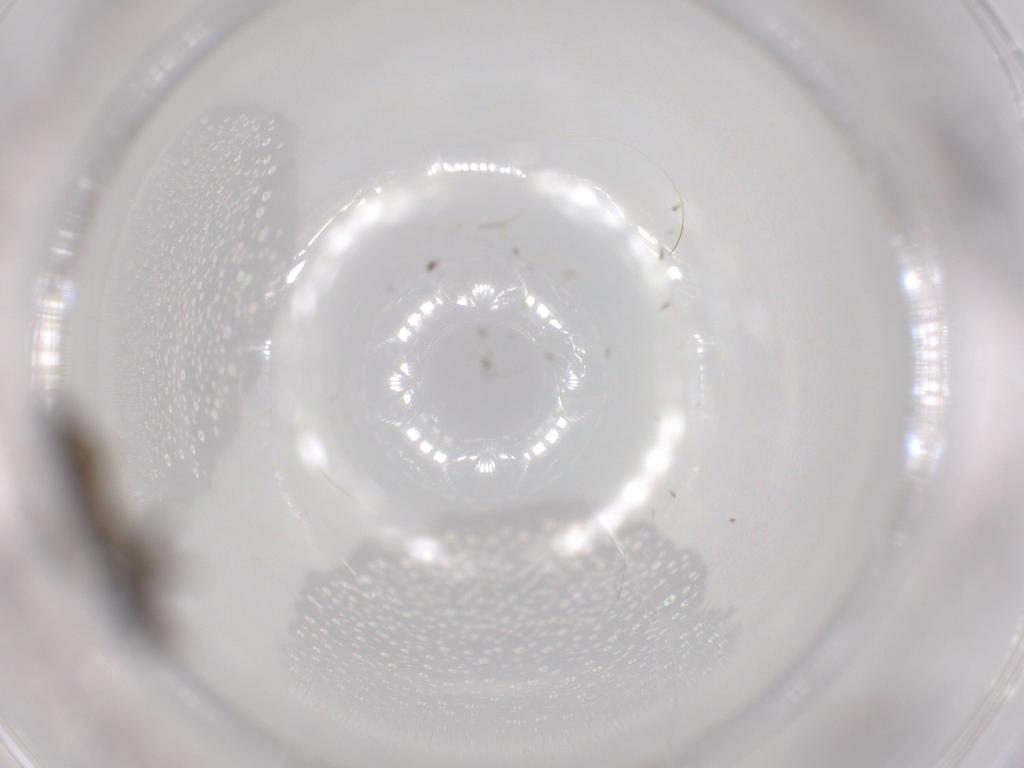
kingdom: Animalia
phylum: Arthropoda
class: Insecta
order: Diptera
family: Sciaridae
